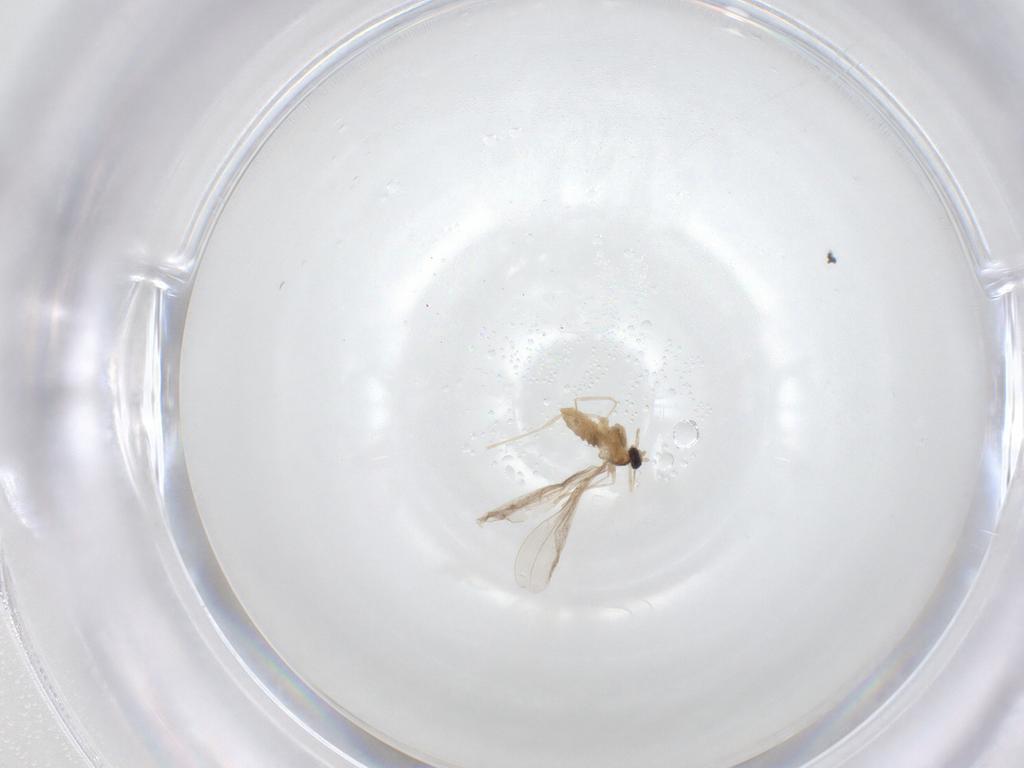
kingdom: Animalia
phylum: Arthropoda
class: Insecta
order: Diptera
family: Cecidomyiidae
